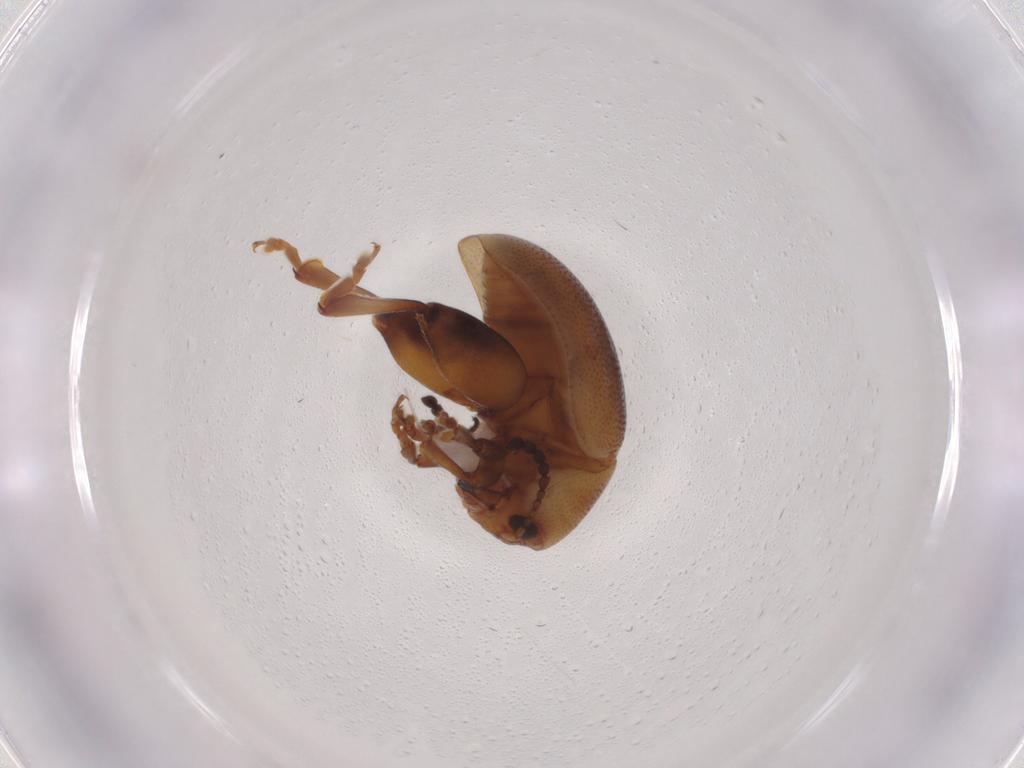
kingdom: Animalia
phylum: Arthropoda
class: Insecta
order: Coleoptera
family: Chrysomelidae
